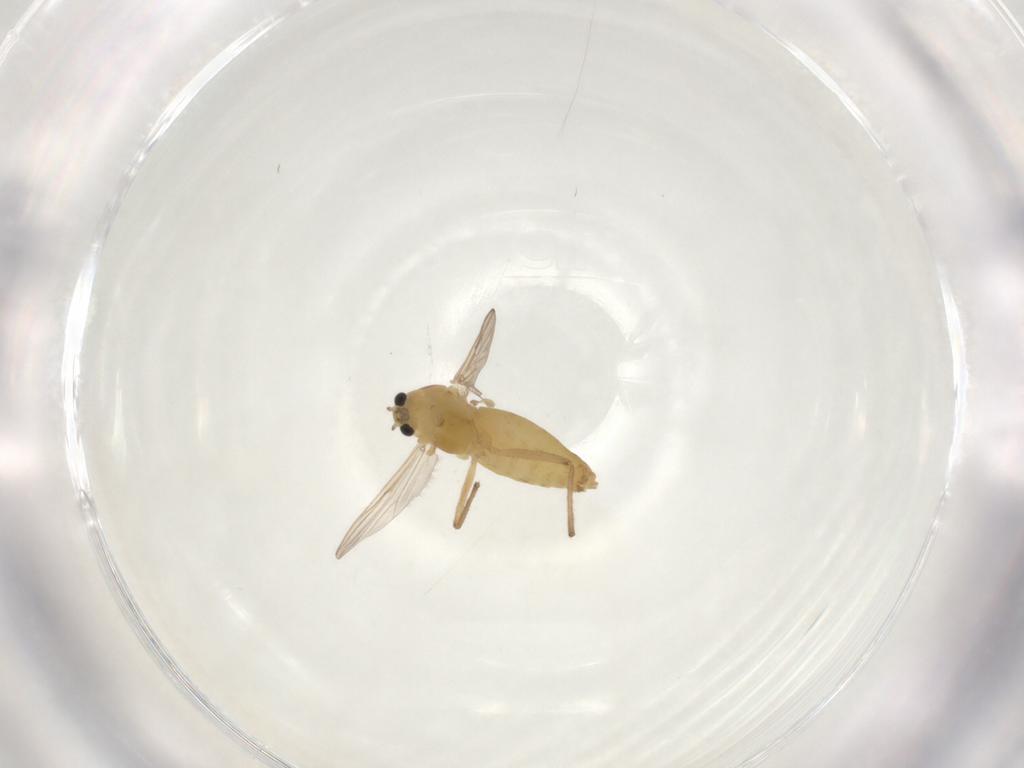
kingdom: Animalia
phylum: Arthropoda
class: Insecta
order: Diptera
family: Chironomidae
